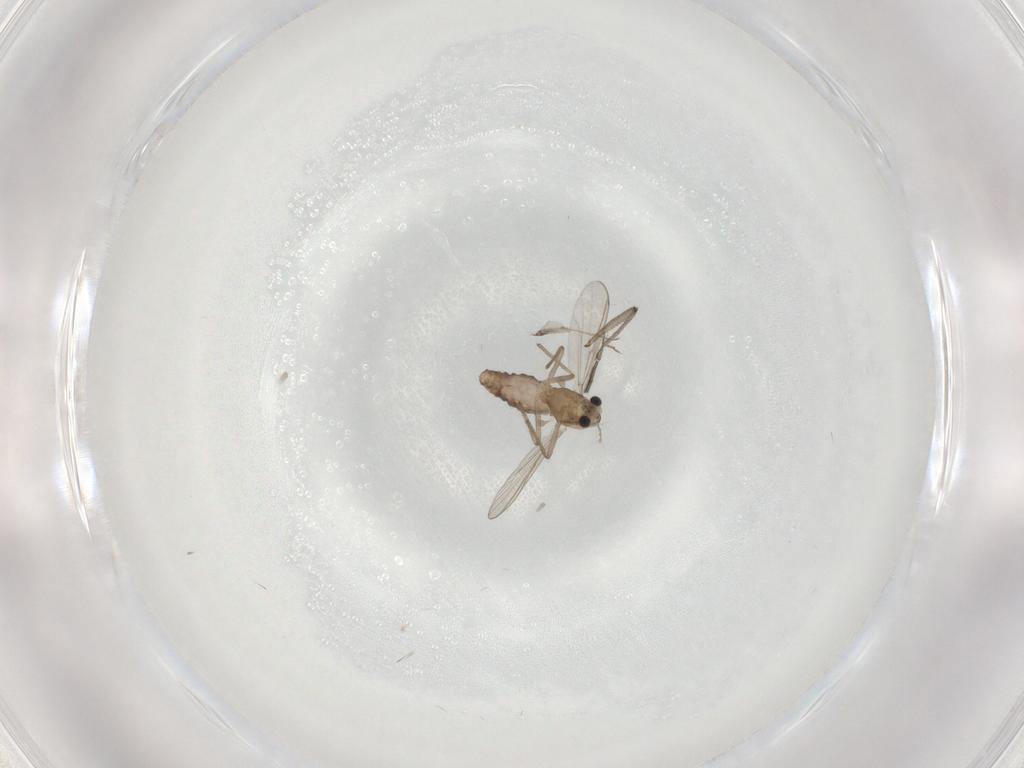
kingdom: Animalia
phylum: Arthropoda
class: Insecta
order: Diptera
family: Chironomidae
